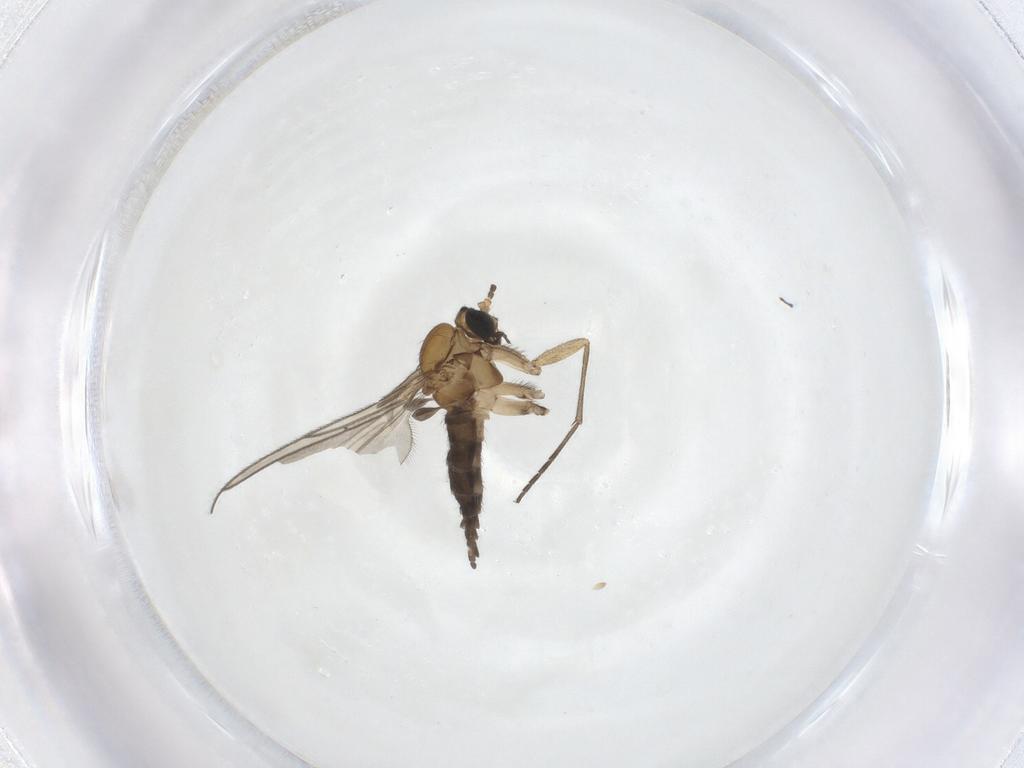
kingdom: Animalia
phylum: Arthropoda
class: Insecta
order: Diptera
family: Sciaridae
